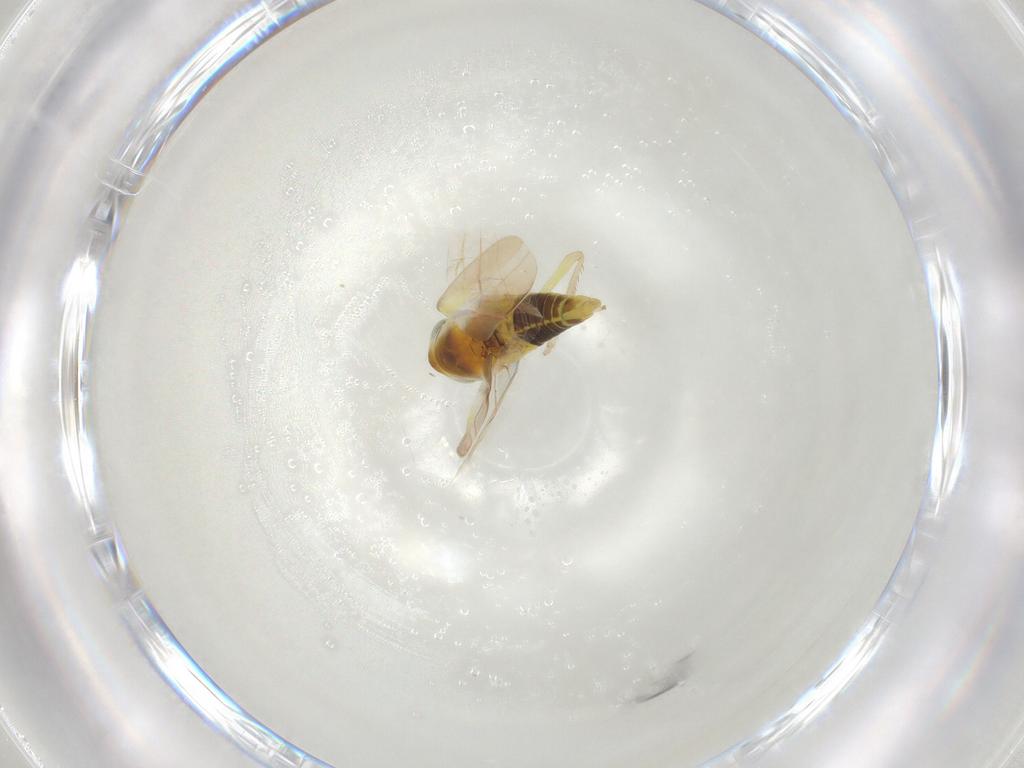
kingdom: Animalia
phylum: Arthropoda
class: Insecta
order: Hemiptera
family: Cicadellidae
